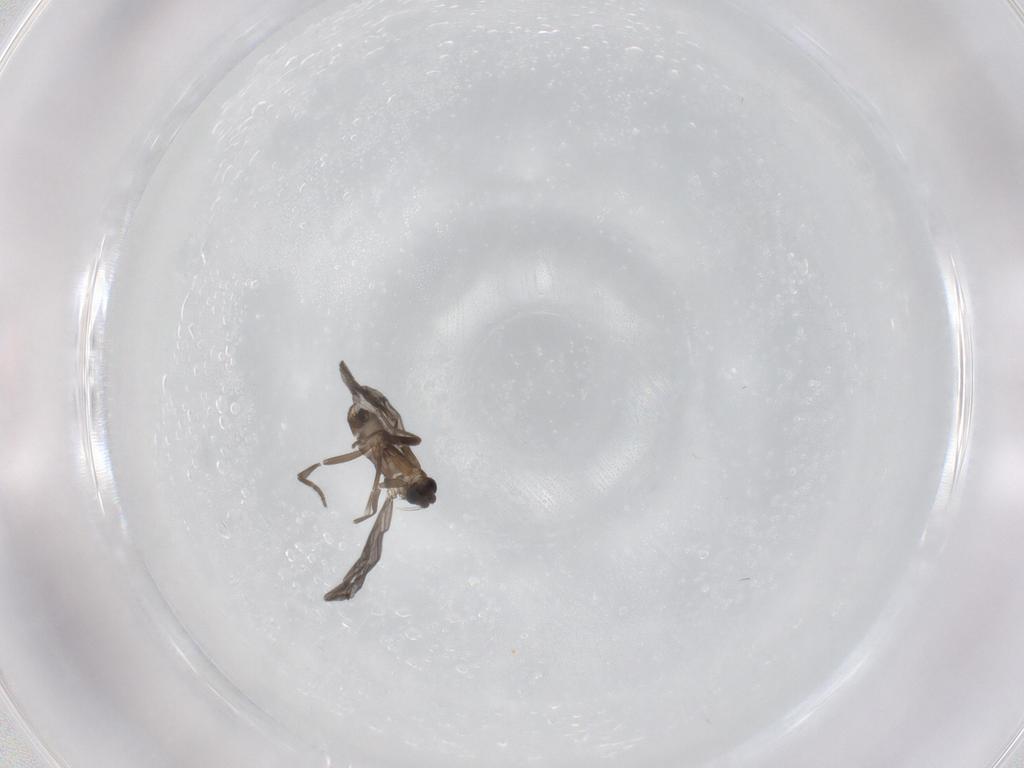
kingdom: Animalia
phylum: Arthropoda
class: Insecta
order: Diptera
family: Phoridae
